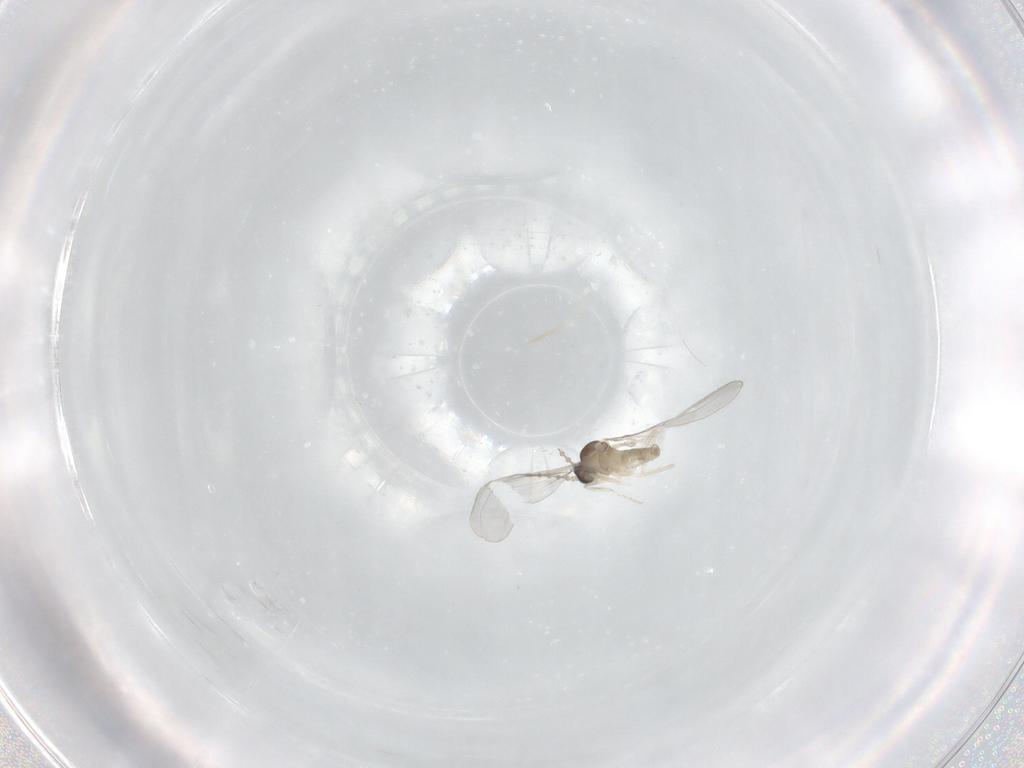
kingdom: Animalia
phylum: Arthropoda
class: Insecta
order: Diptera
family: Cecidomyiidae
